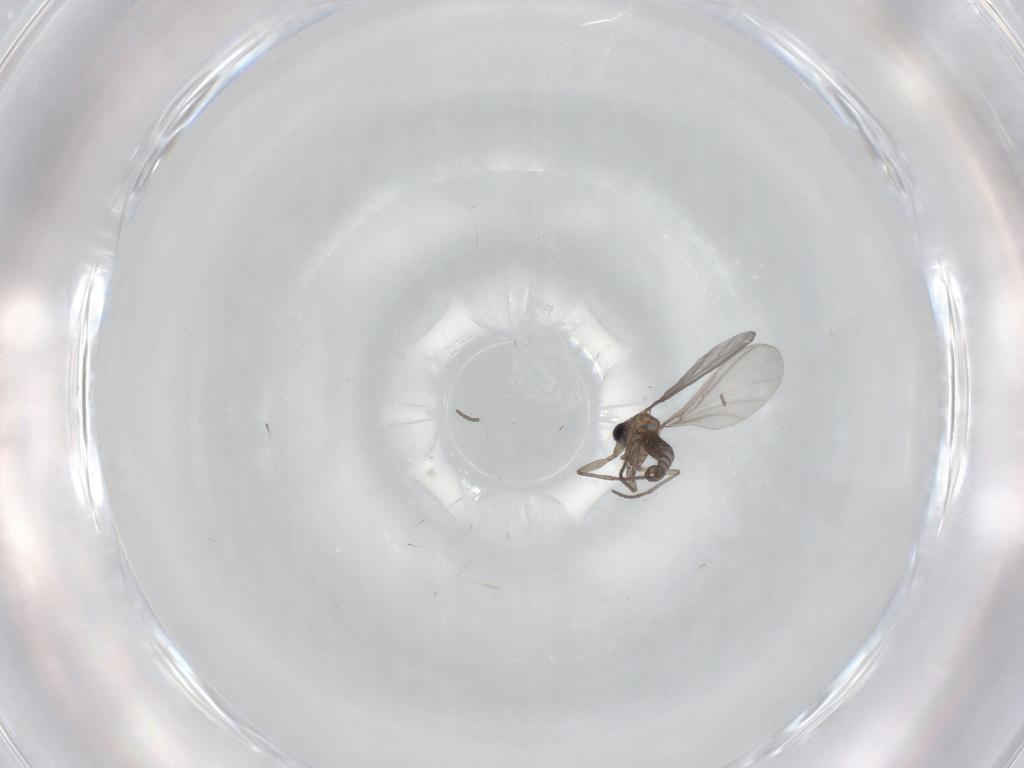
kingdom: Animalia
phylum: Arthropoda
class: Insecta
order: Diptera
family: Sciaridae
